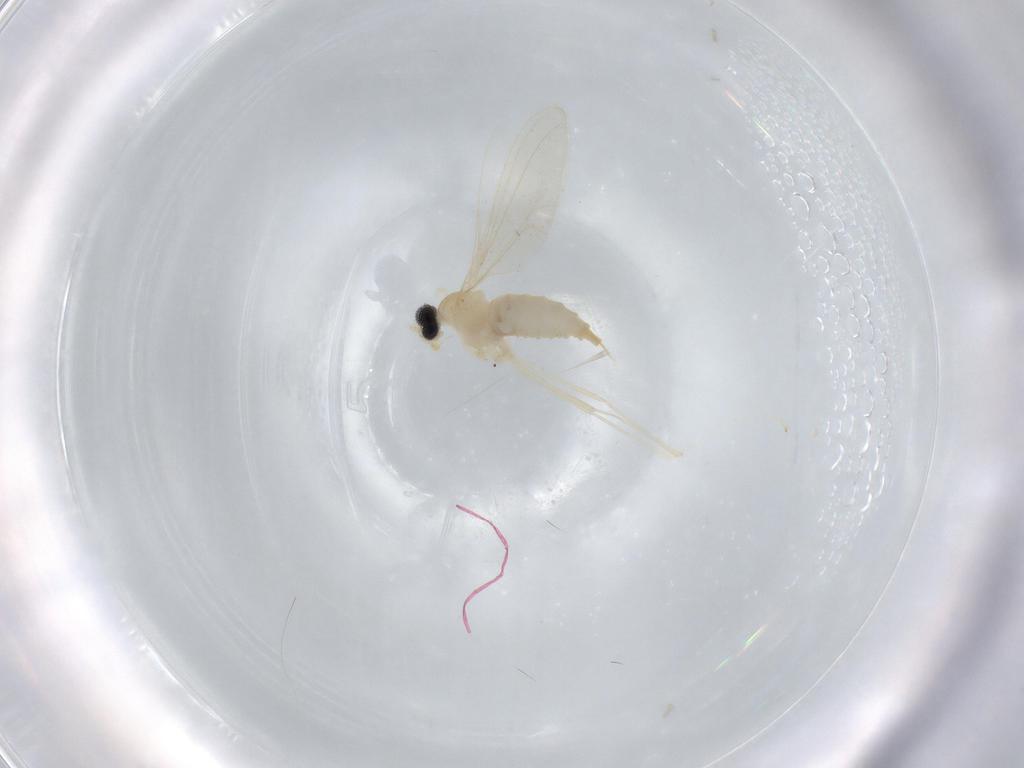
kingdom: Animalia
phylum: Arthropoda
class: Insecta
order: Diptera
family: Cecidomyiidae
